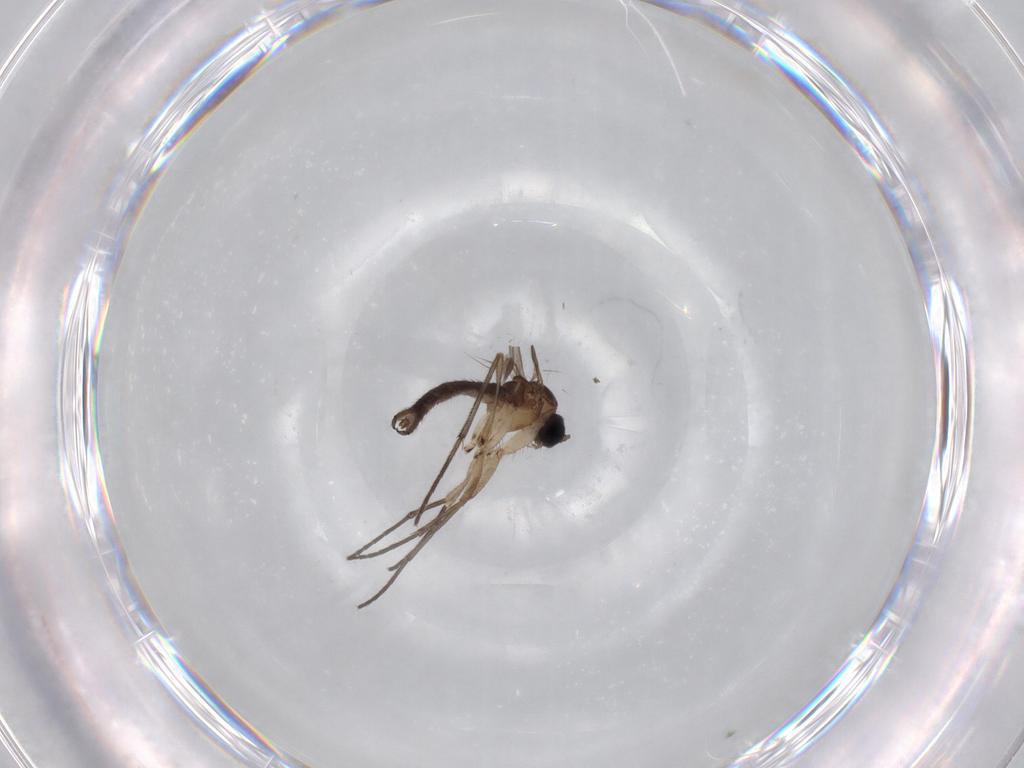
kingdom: Animalia
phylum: Arthropoda
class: Insecta
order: Diptera
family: Sciaridae
